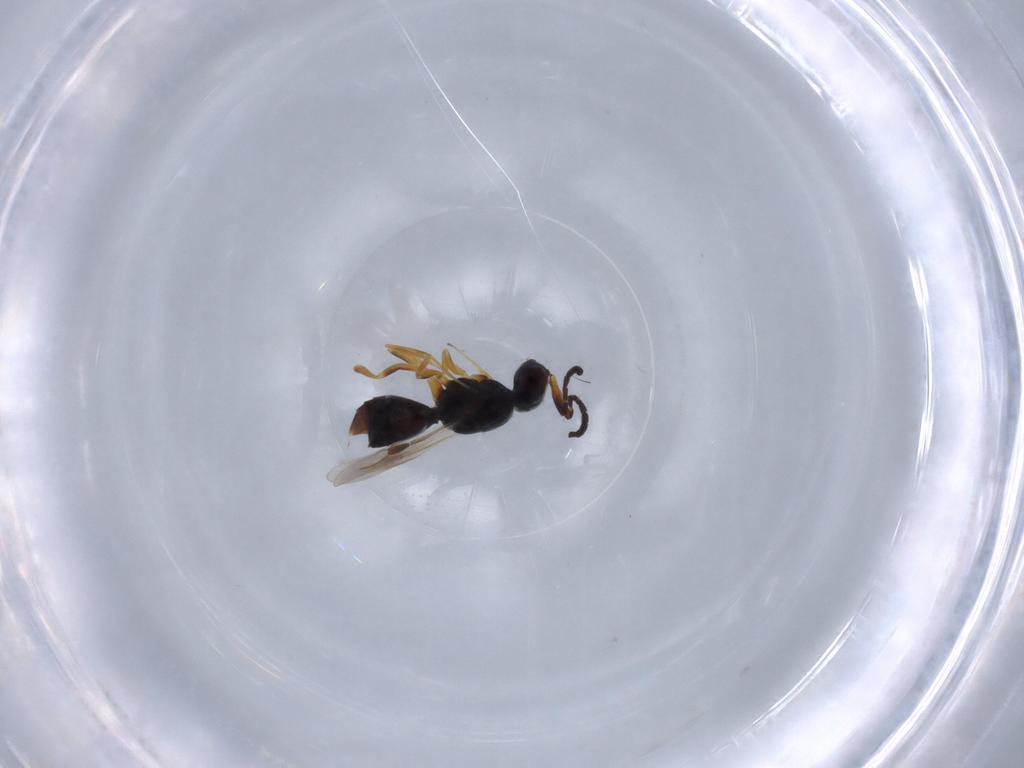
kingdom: Animalia
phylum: Arthropoda
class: Insecta
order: Hymenoptera
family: Megaspilidae
